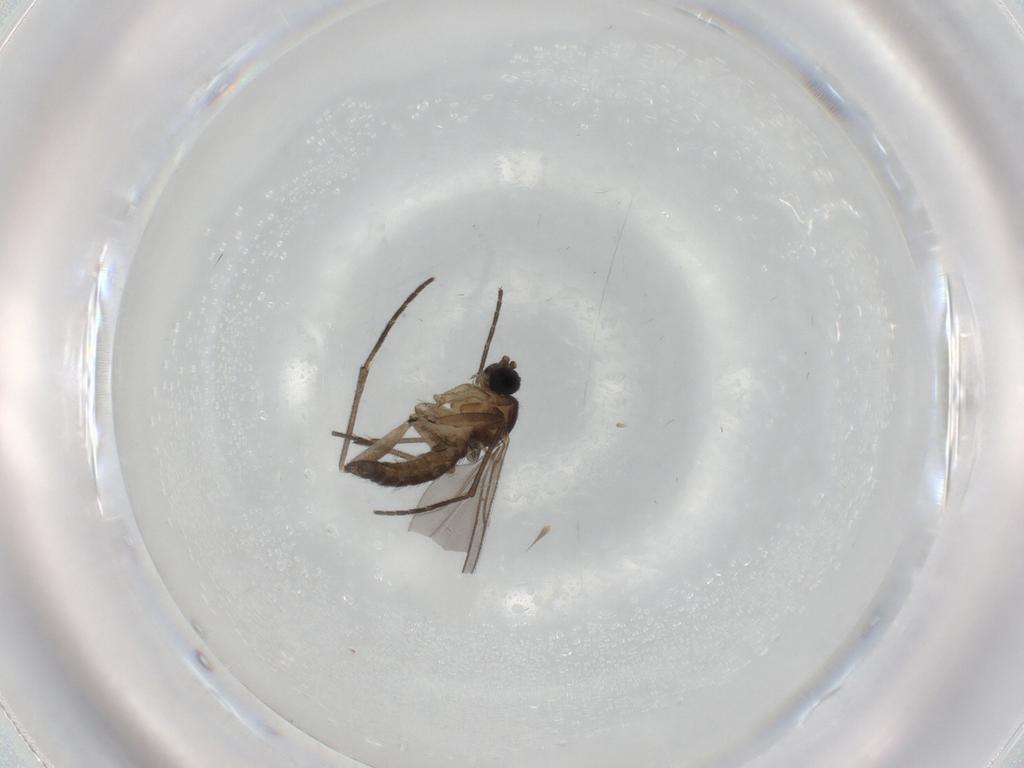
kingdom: Animalia
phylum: Arthropoda
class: Insecta
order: Diptera
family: Sciaridae
